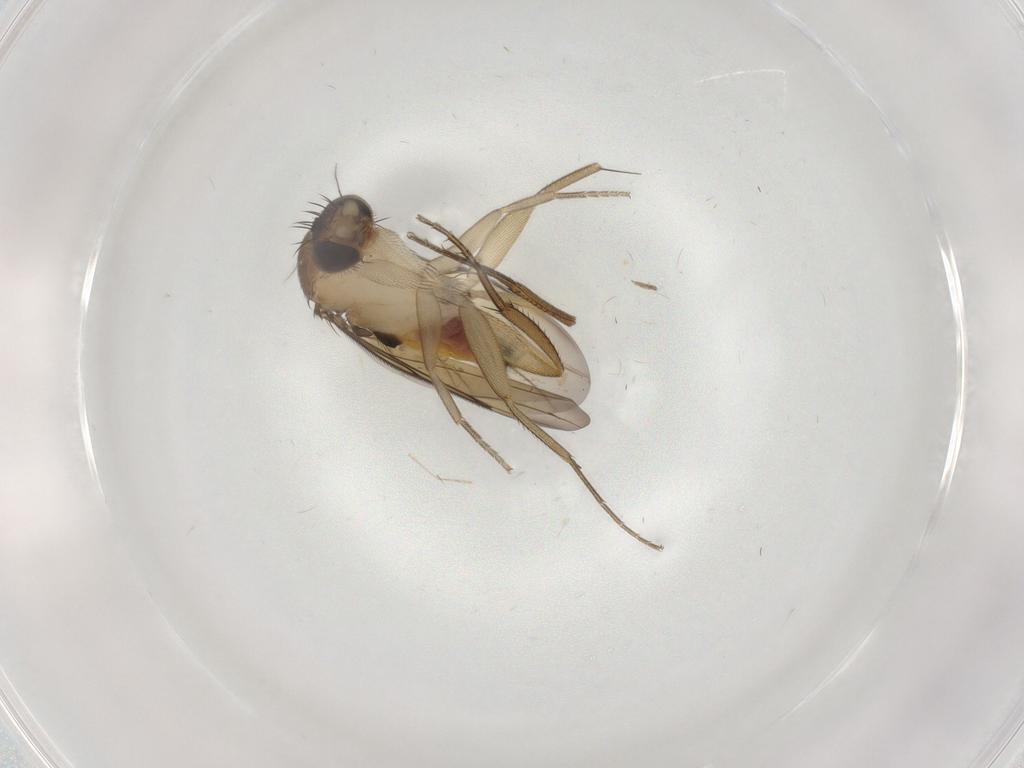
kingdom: Animalia
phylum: Arthropoda
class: Insecta
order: Diptera
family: Cecidomyiidae
